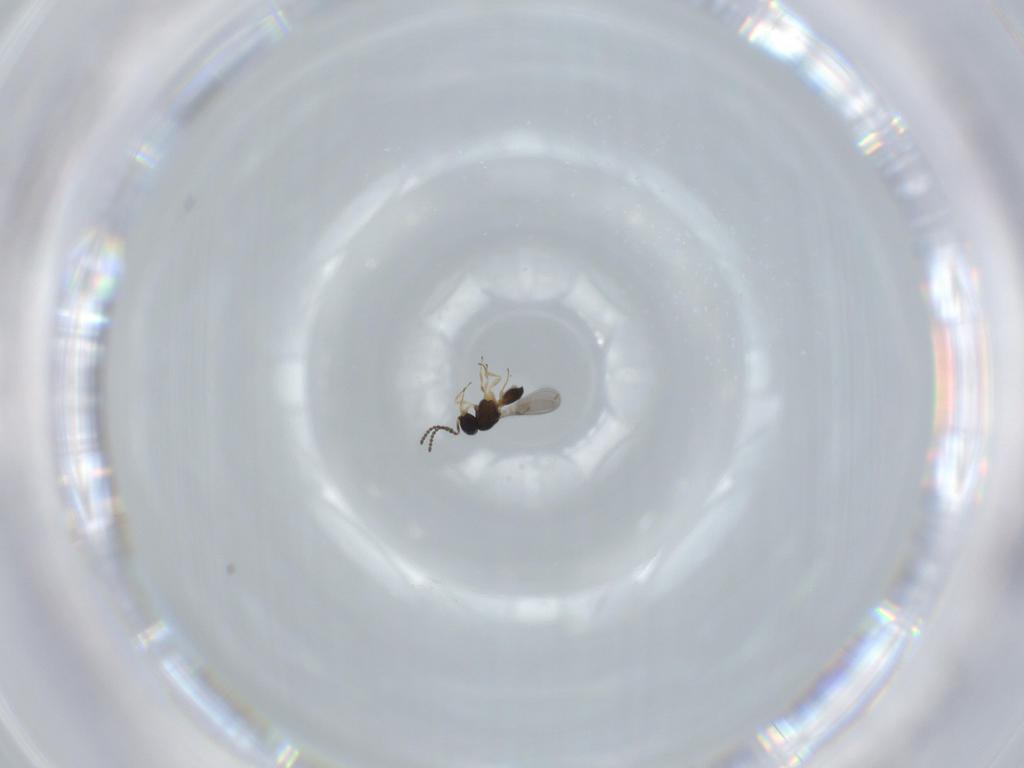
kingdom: Animalia
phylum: Arthropoda
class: Insecta
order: Hymenoptera
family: Scelionidae
